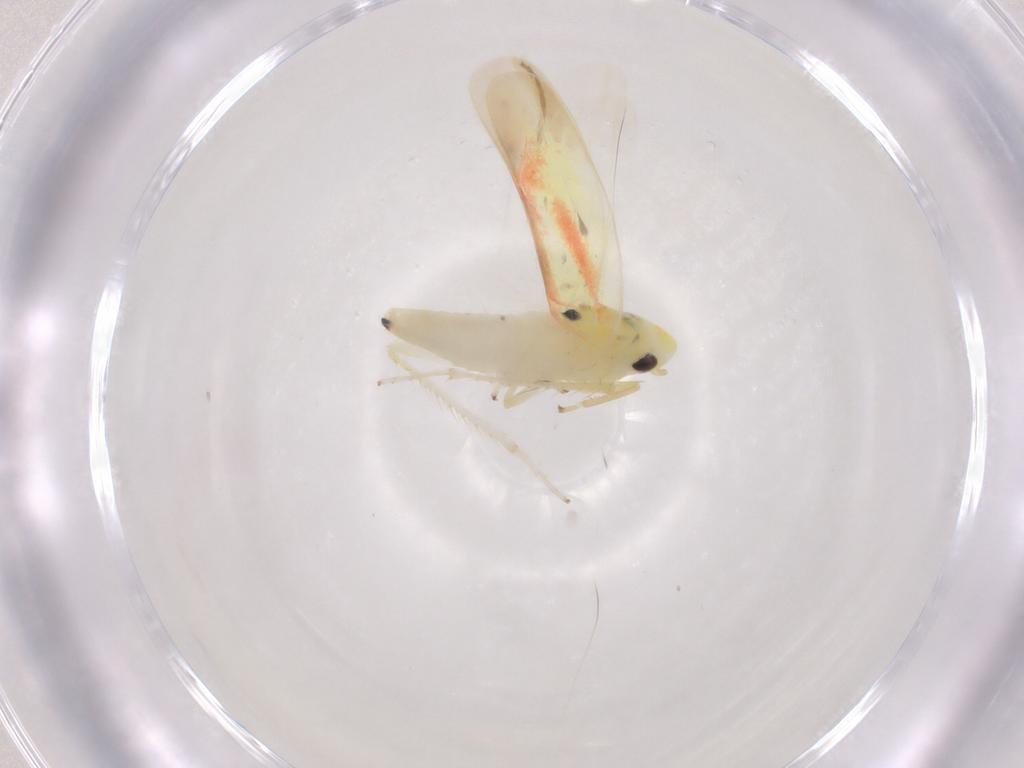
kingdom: Animalia
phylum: Arthropoda
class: Insecta
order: Hemiptera
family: Cicadellidae
